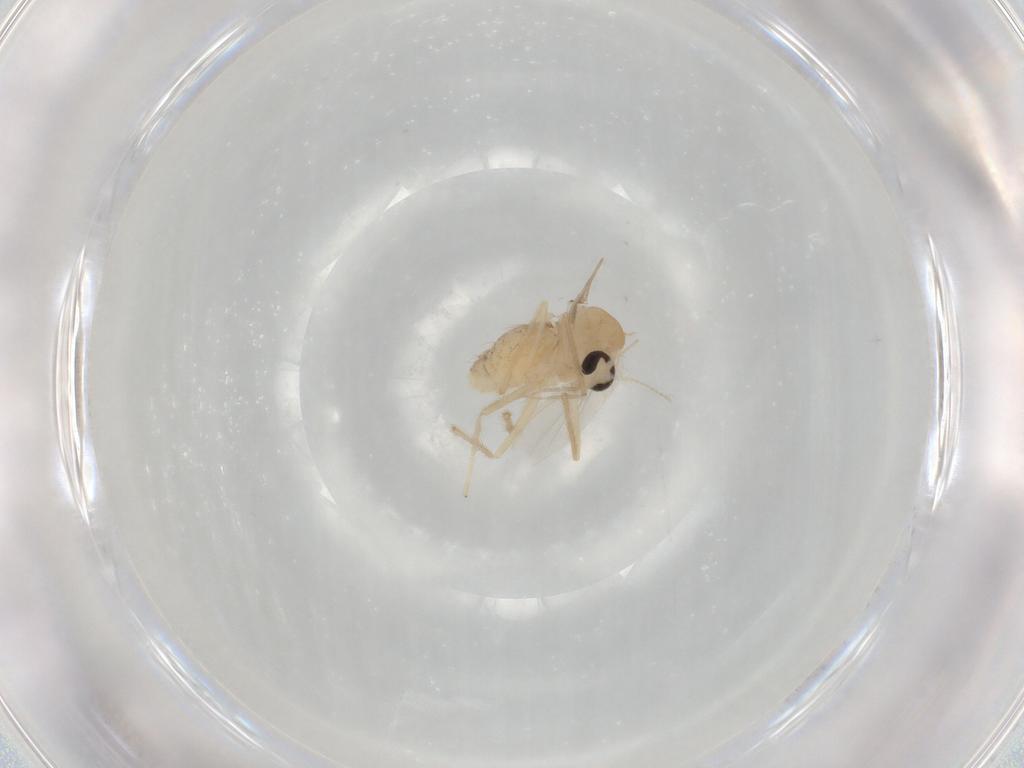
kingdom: Animalia
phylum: Arthropoda
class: Insecta
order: Diptera
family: Chironomidae
